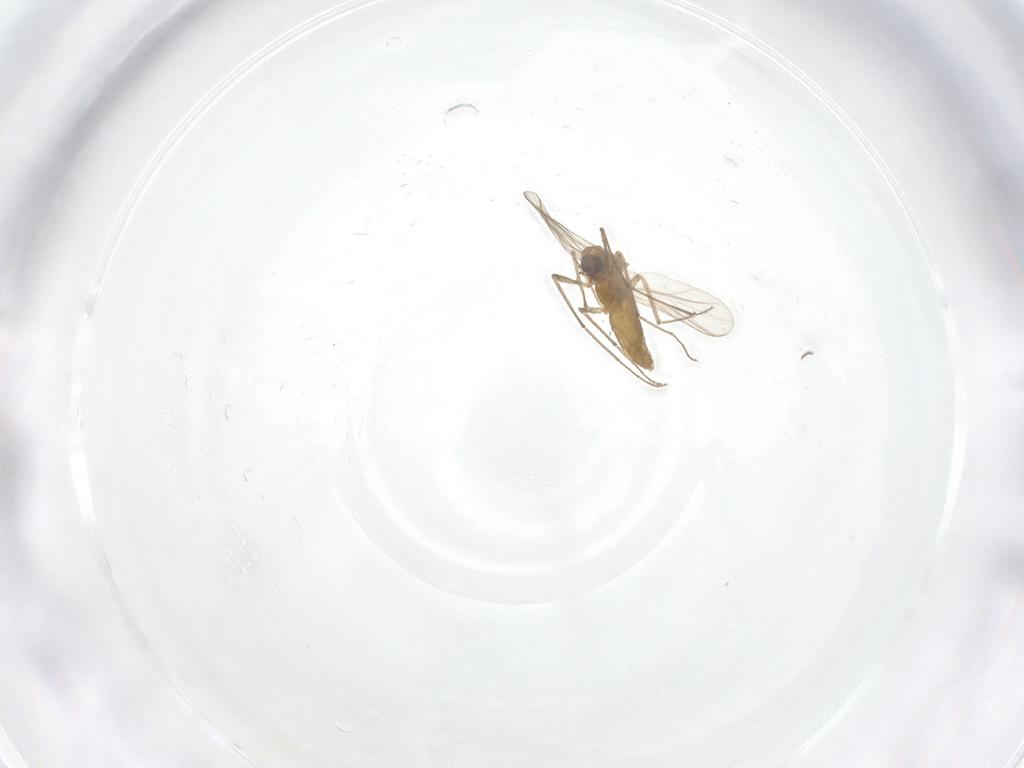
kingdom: Animalia
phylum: Arthropoda
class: Insecta
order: Diptera
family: Chironomidae
